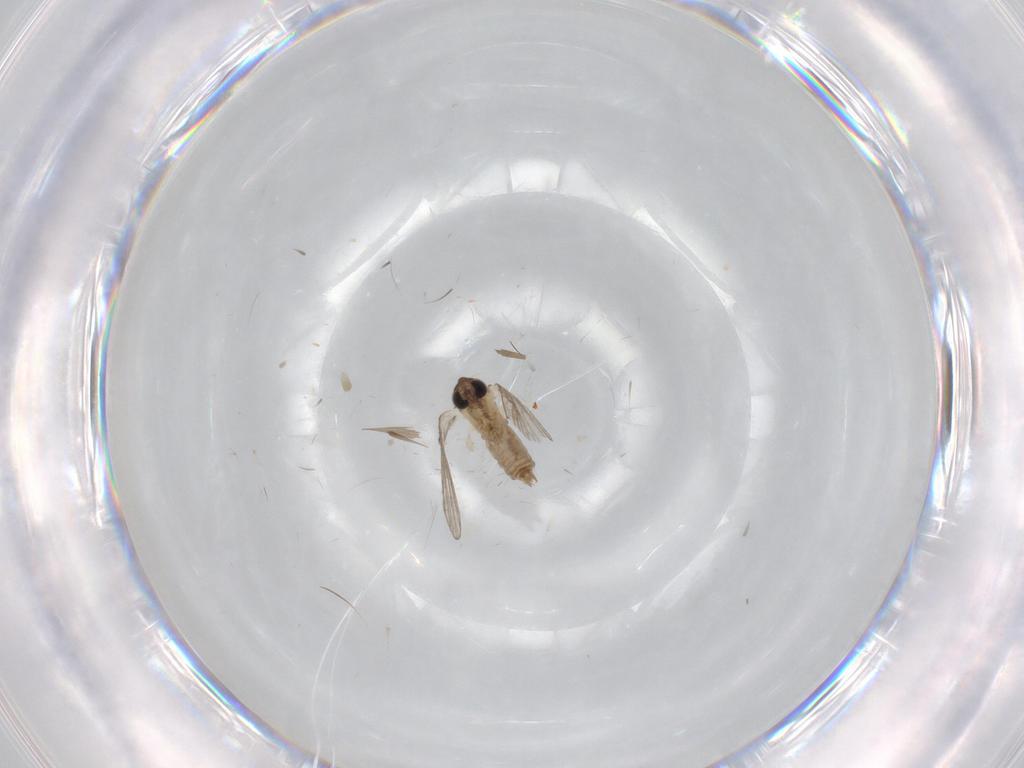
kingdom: Animalia
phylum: Arthropoda
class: Insecta
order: Diptera
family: Psychodidae
